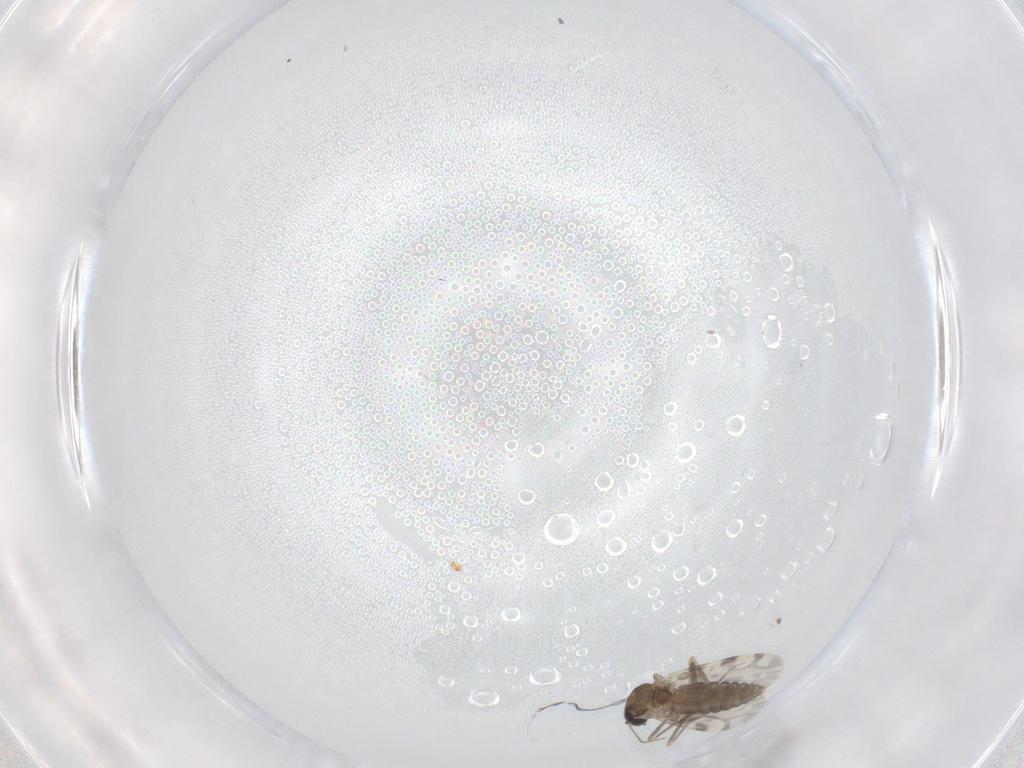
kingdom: Animalia
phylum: Arthropoda
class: Insecta
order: Diptera
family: Ceratopogonidae
